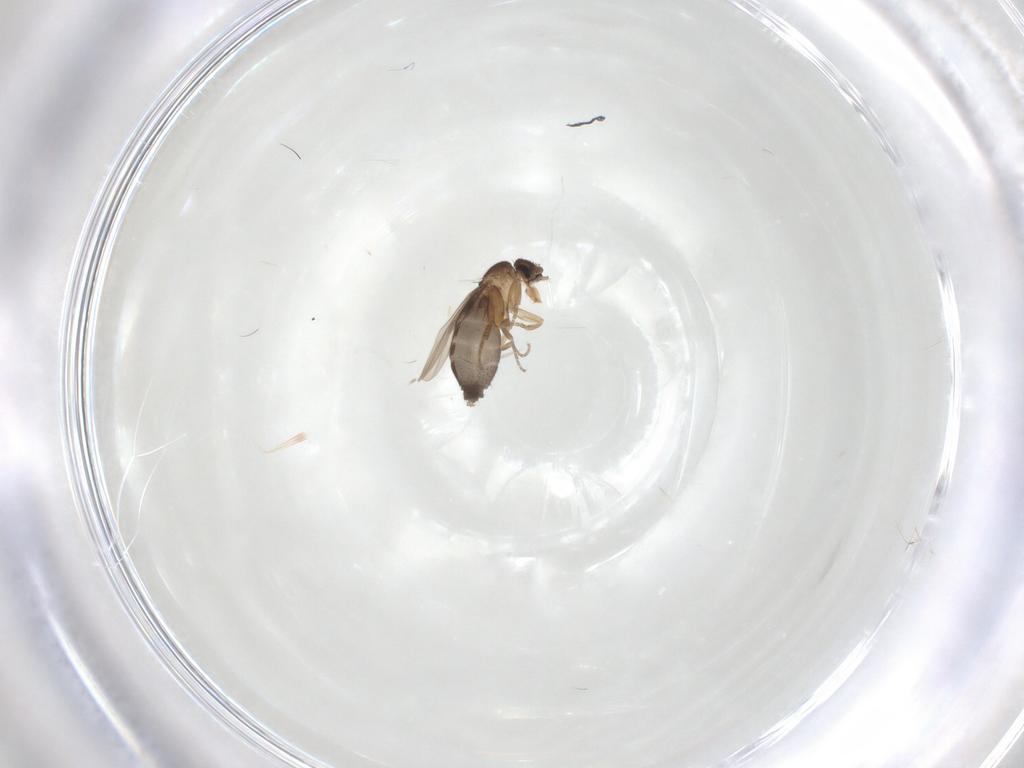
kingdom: Animalia
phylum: Arthropoda
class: Insecta
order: Diptera
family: Phoridae
